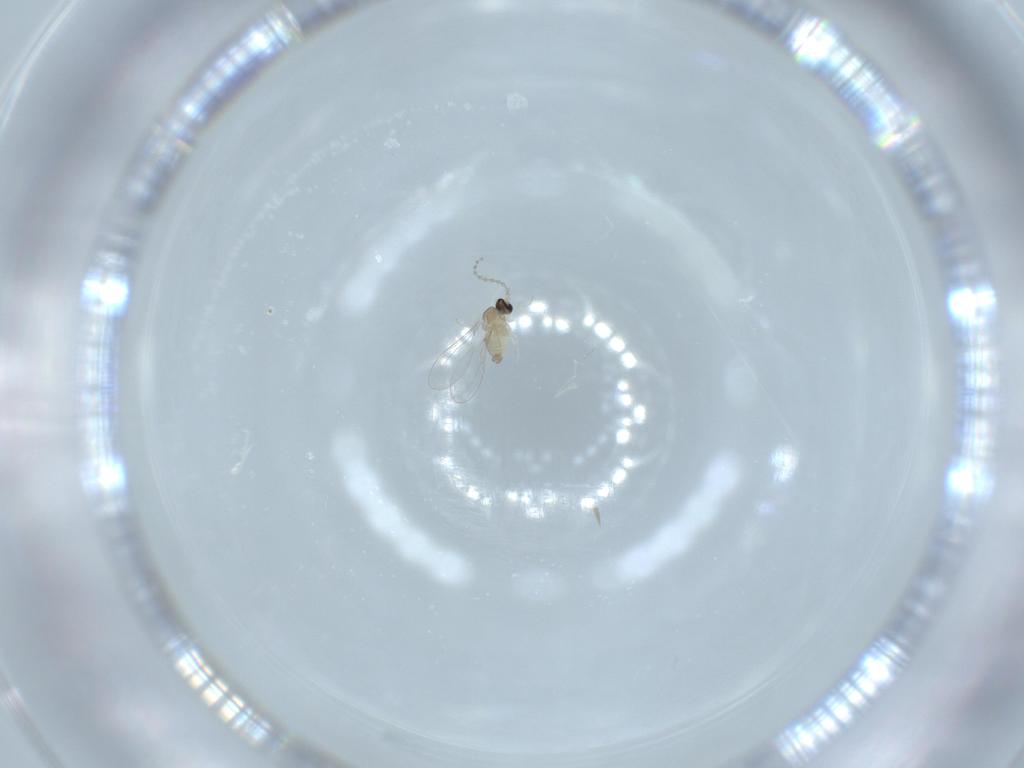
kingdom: Animalia
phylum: Arthropoda
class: Insecta
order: Diptera
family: Cecidomyiidae
